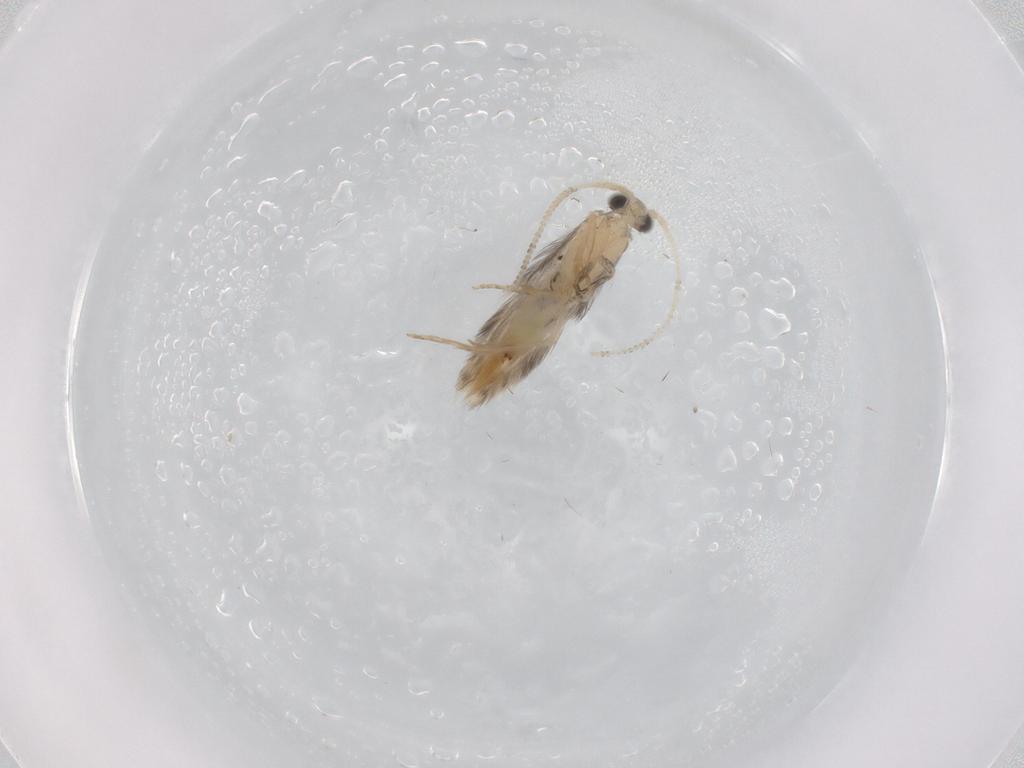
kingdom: Animalia
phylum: Arthropoda
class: Insecta
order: Trichoptera
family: Hydroptilidae
